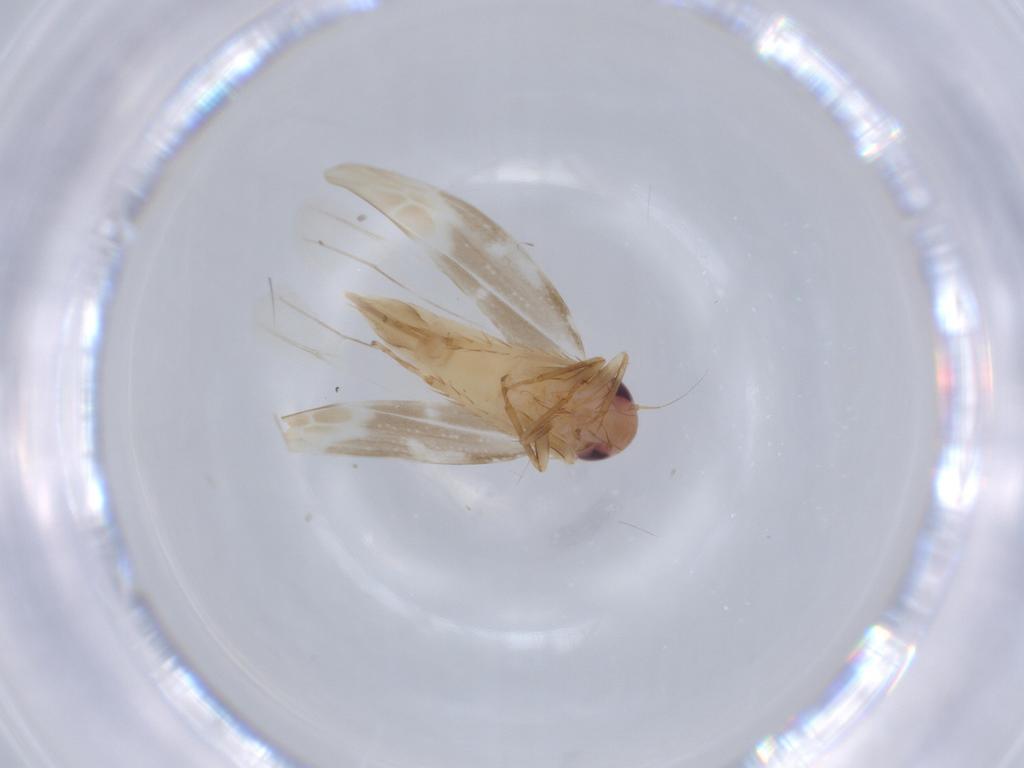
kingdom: Animalia
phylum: Arthropoda
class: Insecta
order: Hemiptera
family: Cicadellidae
